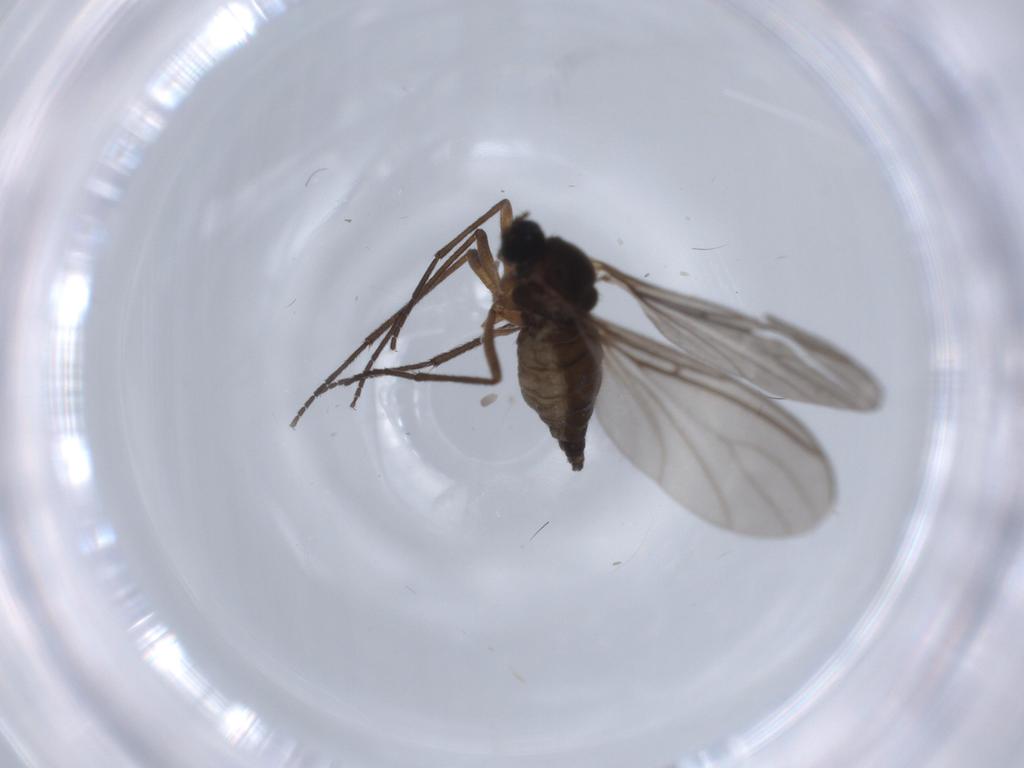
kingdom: Animalia
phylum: Arthropoda
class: Insecta
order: Diptera
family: Sciaridae
